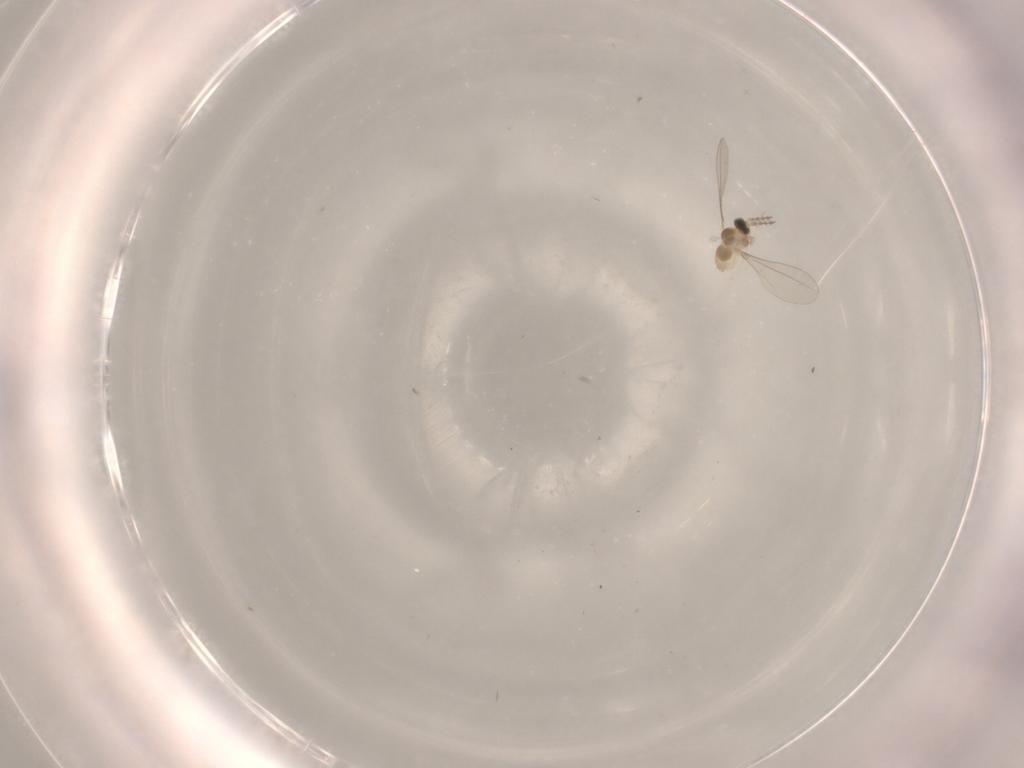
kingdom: Animalia
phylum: Arthropoda
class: Insecta
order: Diptera
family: Cecidomyiidae
